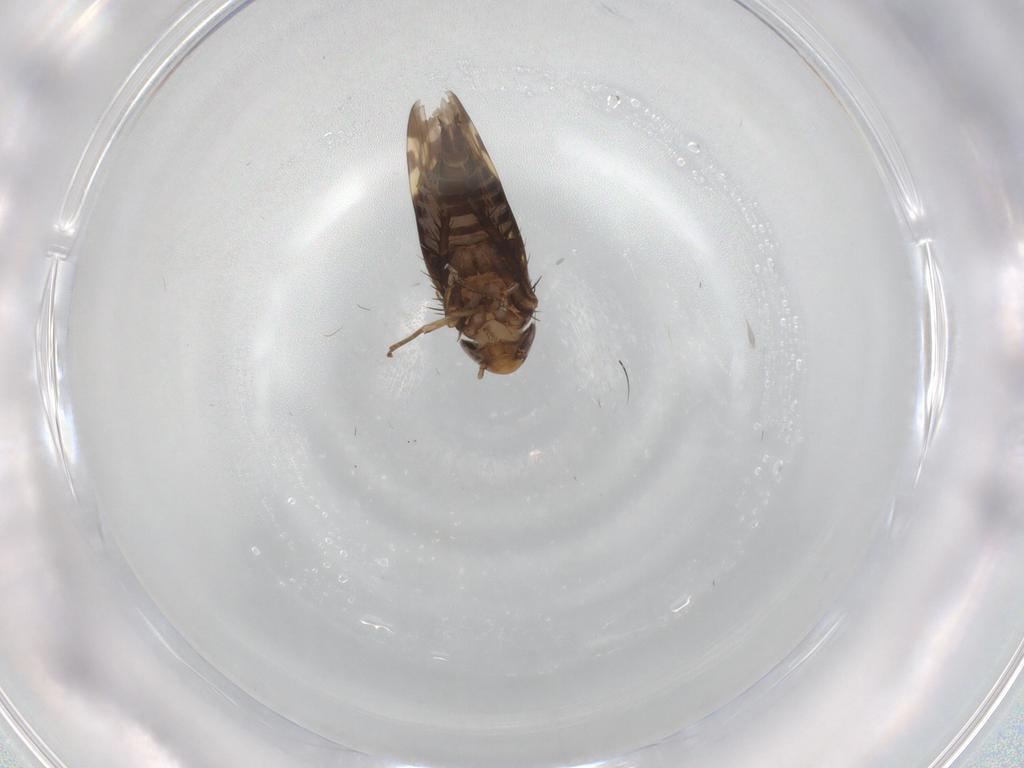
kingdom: Animalia
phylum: Arthropoda
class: Insecta
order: Hemiptera
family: Cicadellidae
